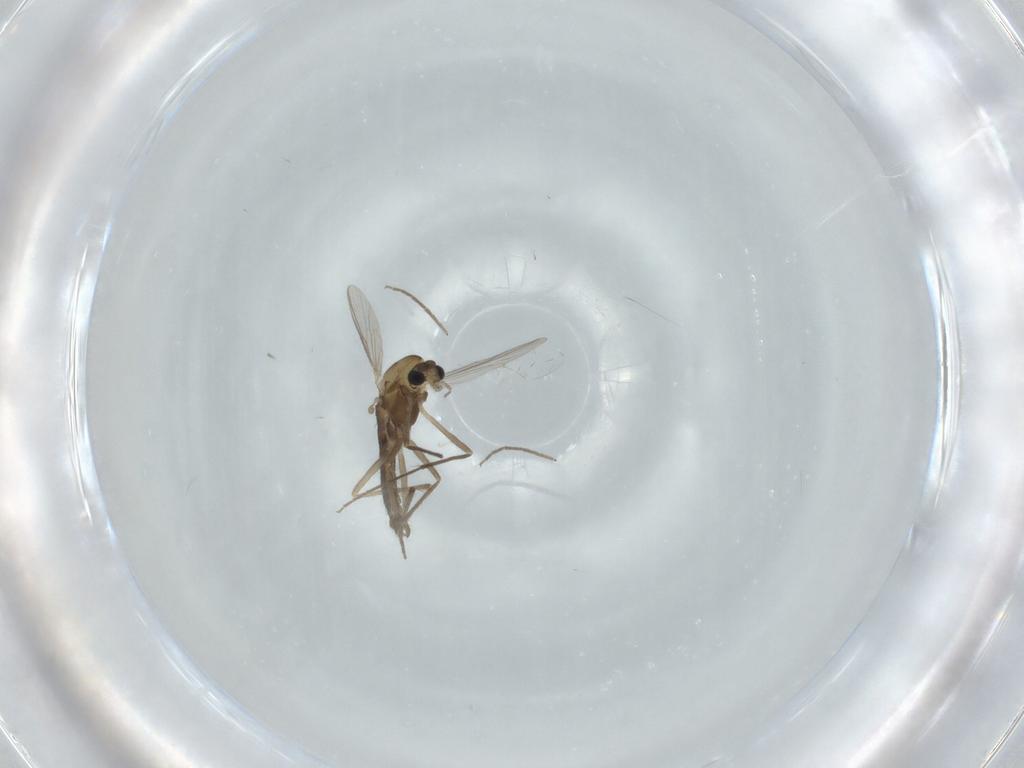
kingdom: Animalia
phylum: Arthropoda
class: Insecta
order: Diptera
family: Chironomidae
